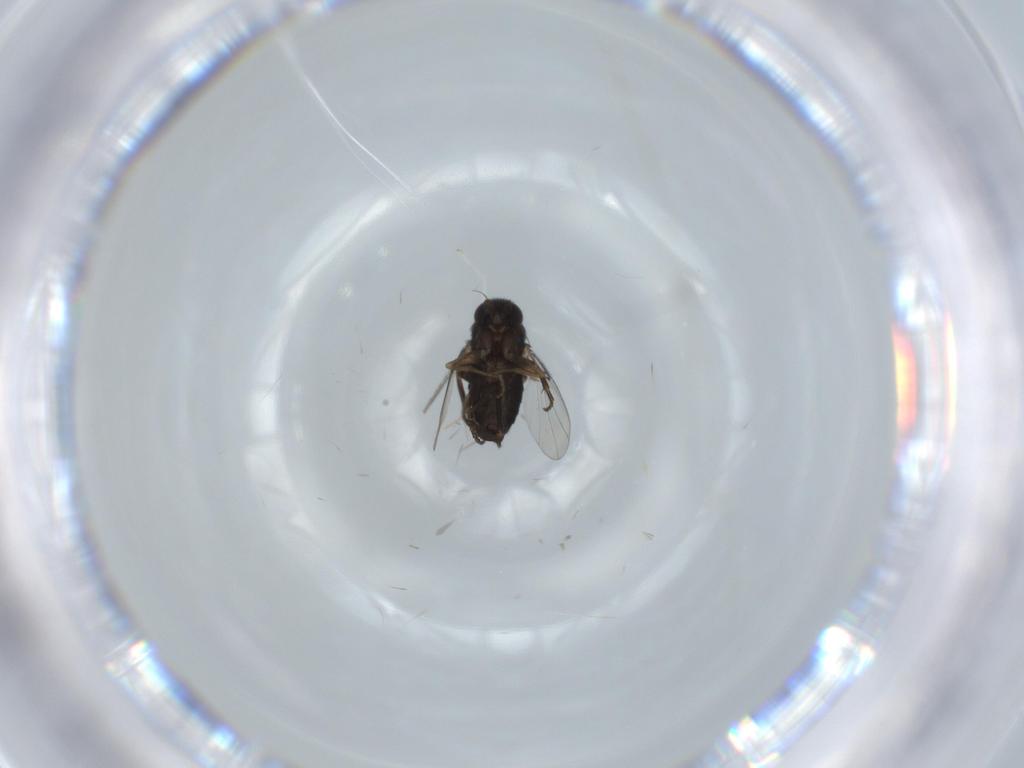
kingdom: Animalia
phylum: Arthropoda
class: Insecta
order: Diptera
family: Phoridae
